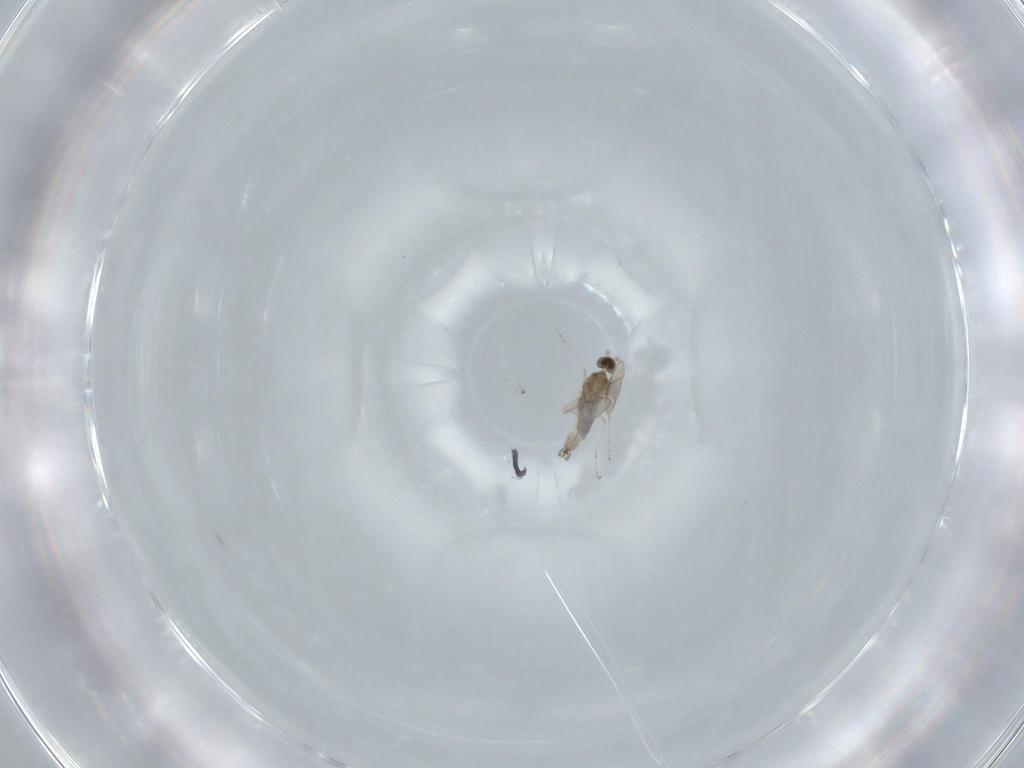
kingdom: Animalia
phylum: Arthropoda
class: Insecta
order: Diptera
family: Cecidomyiidae
